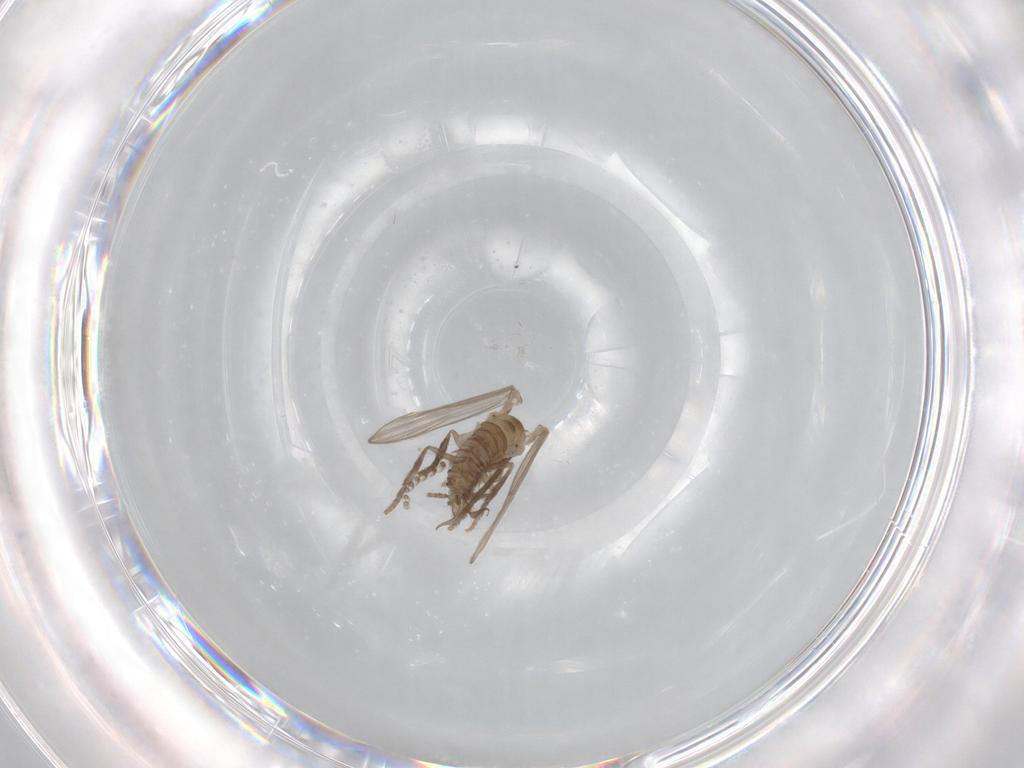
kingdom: Animalia
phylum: Arthropoda
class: Insecta
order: Diptera
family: Psychodidae
